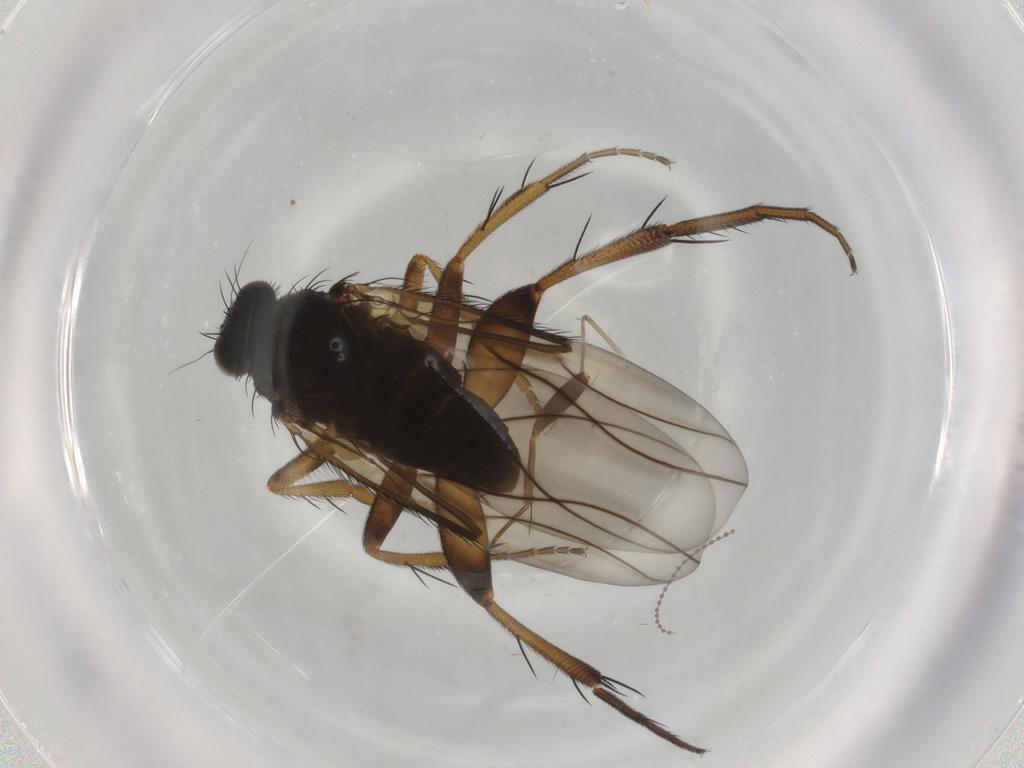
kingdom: Animalia
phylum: Arthropoda
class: Insecta
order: Diptera
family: Phoridae
